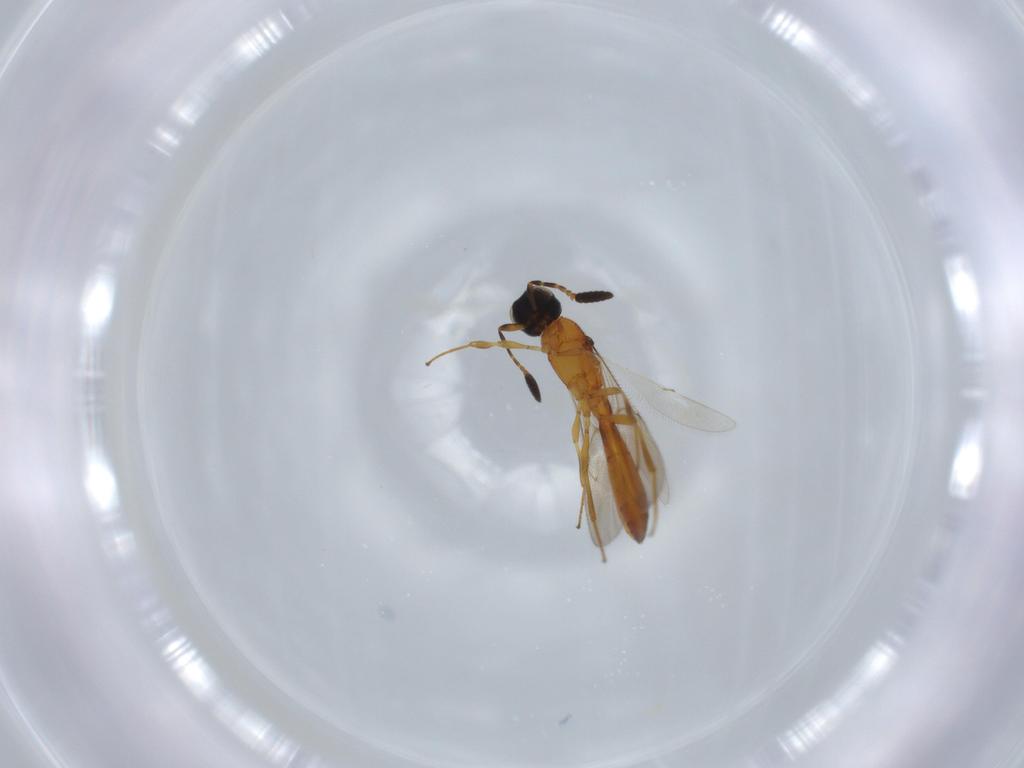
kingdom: Animalia
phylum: Arthropoda
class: Insecta
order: Hymenoptera
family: Scelionidae
